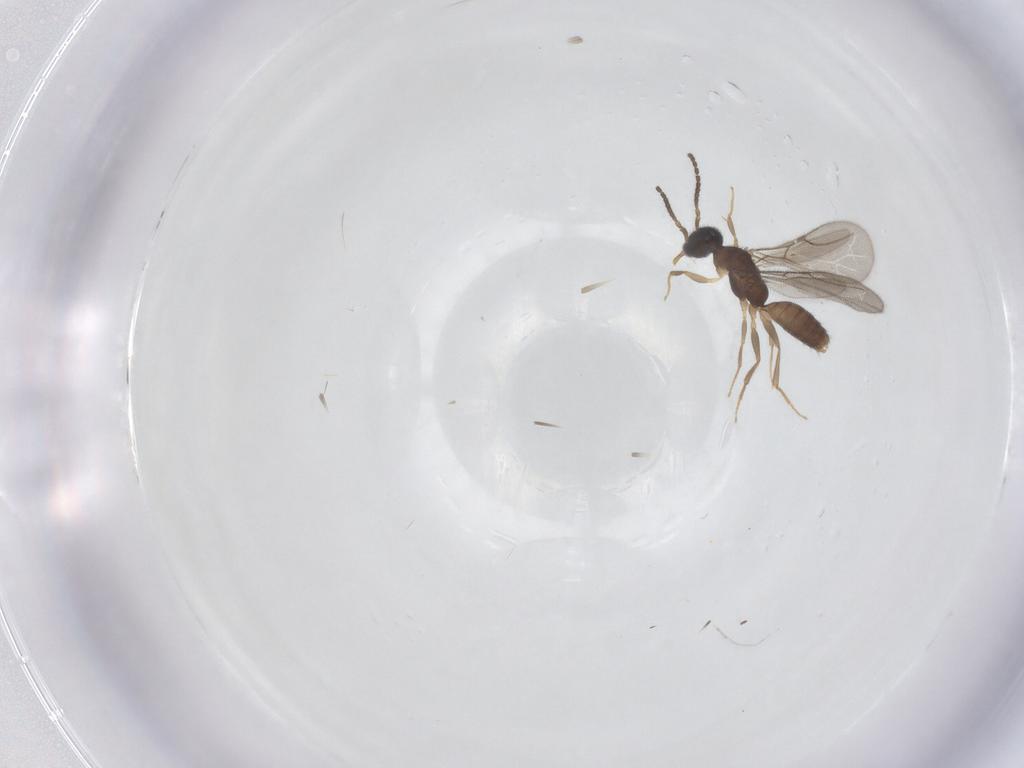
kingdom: Animalia
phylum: Arthropoda
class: Insecta
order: Hymenoptera
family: Bethylidae
